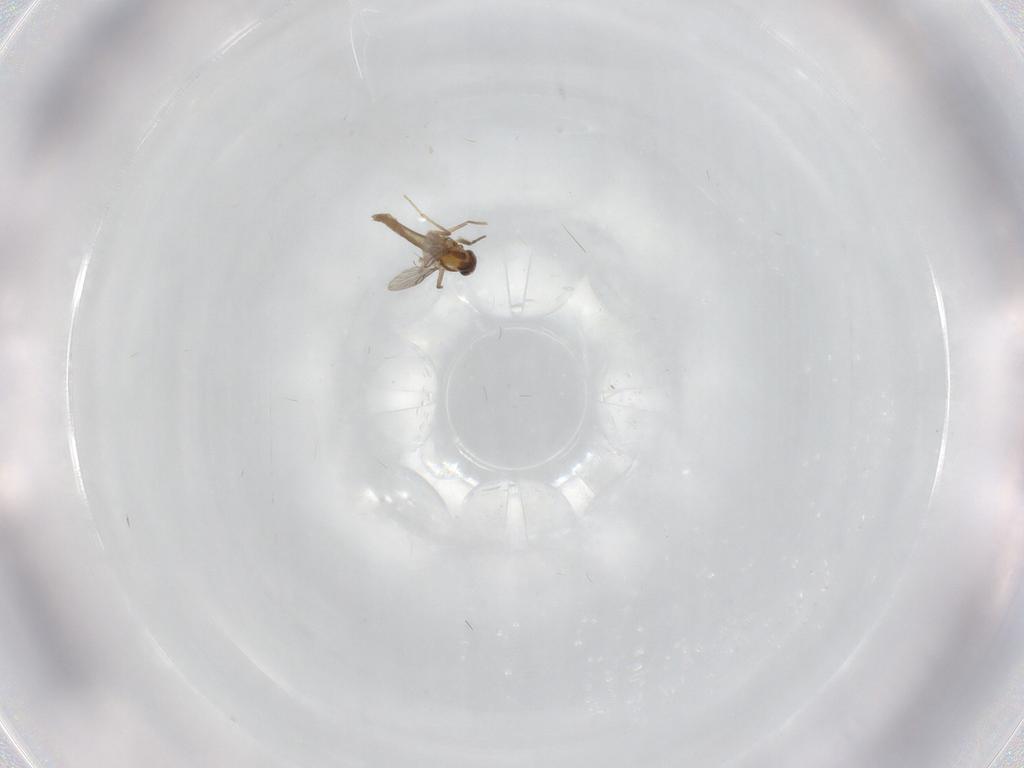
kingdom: Animalia
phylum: Arthropoda
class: Insecta
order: Diptera
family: Chironomidae
